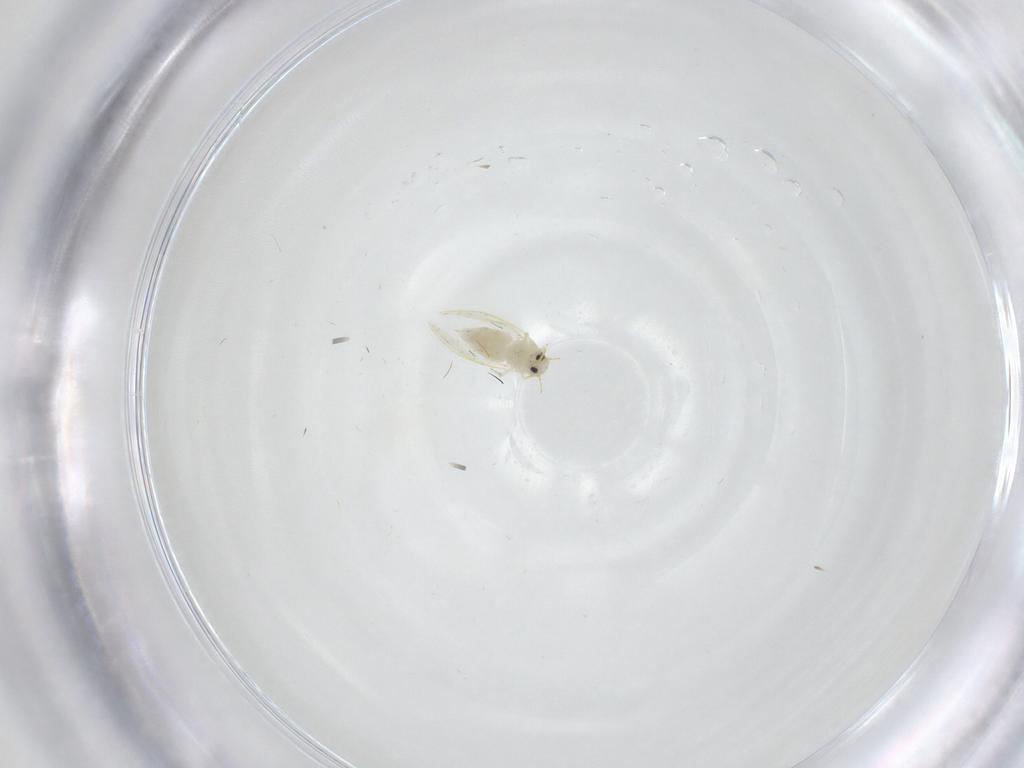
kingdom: Animalia
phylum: Arthropoda
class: Insecta
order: Hemiptera
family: Aleyrodidae
